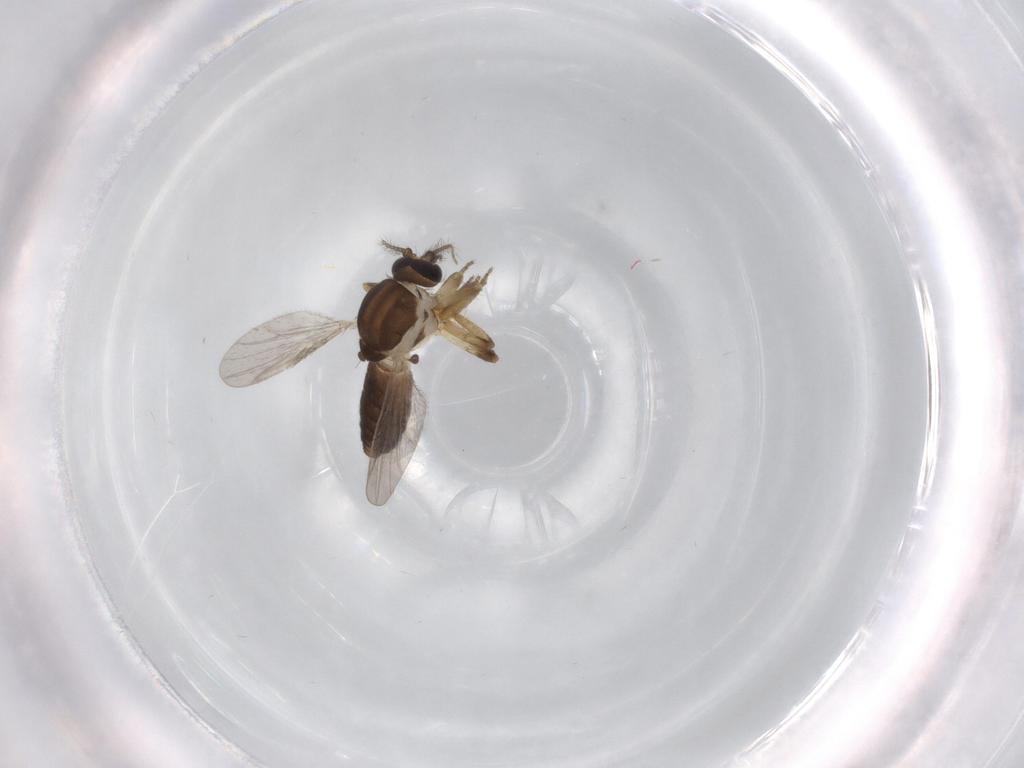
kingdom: Animalia
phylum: Arthropoda
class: Insecta
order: Diptera
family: Ceratopogonidae
